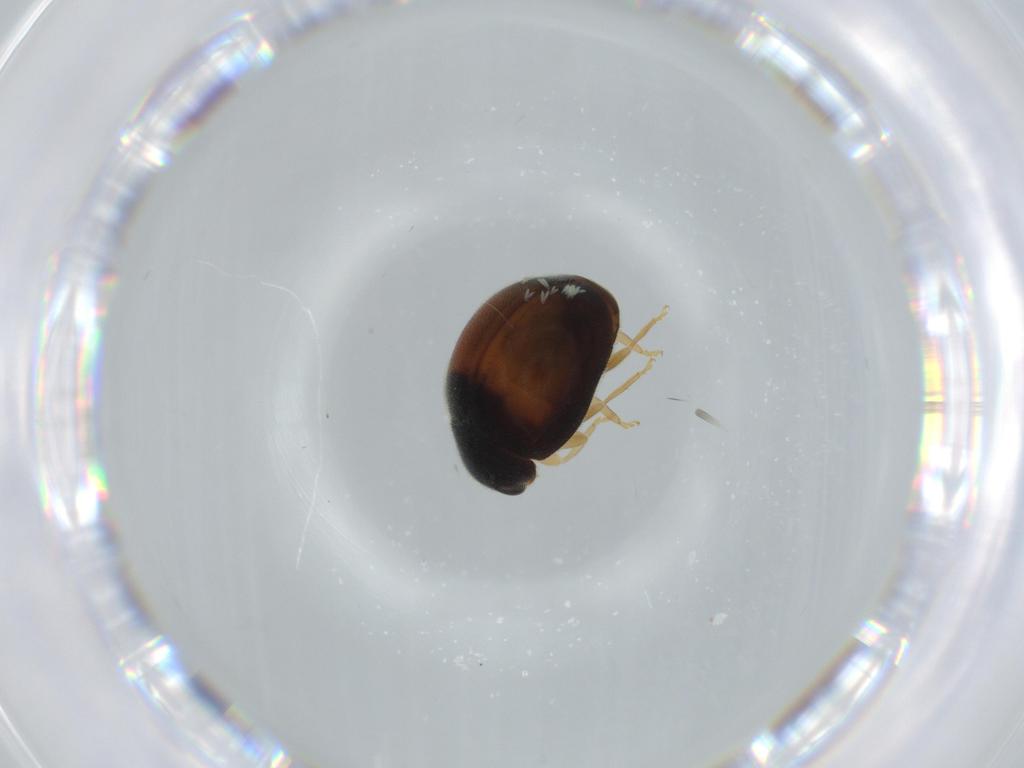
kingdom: Animalia
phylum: Arthropoda
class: Insecta
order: Coleoptera
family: Coccinellidae
